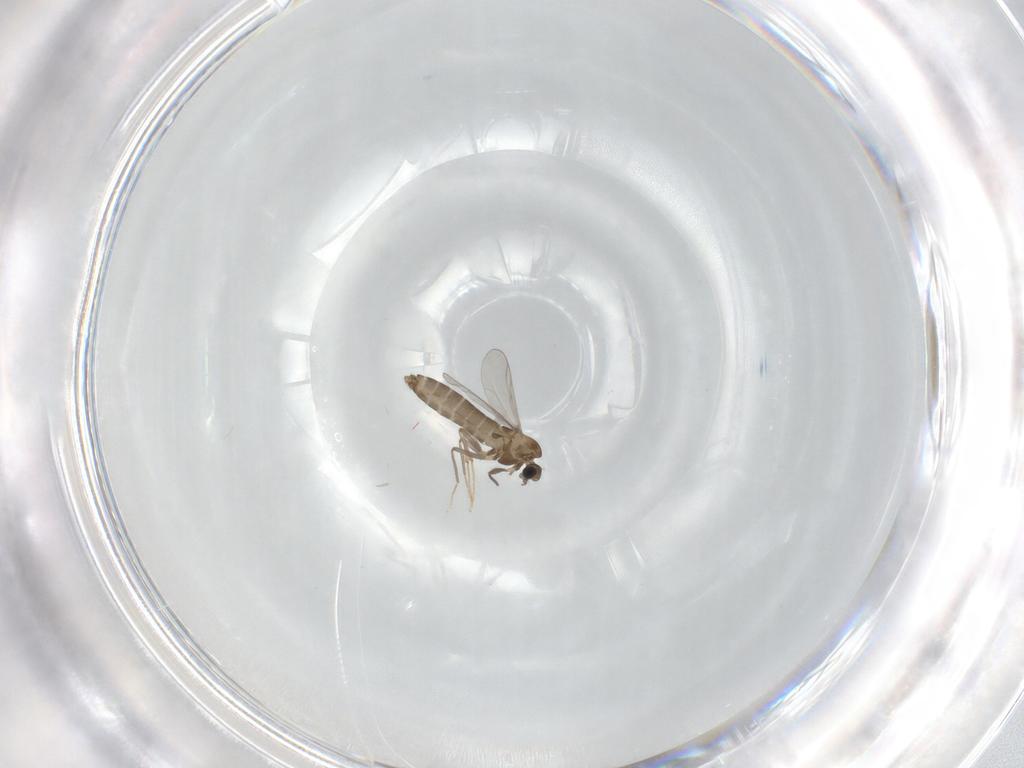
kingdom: Animalia
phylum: Arthropoda
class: Insecta
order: Diptera
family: Chironomidae
